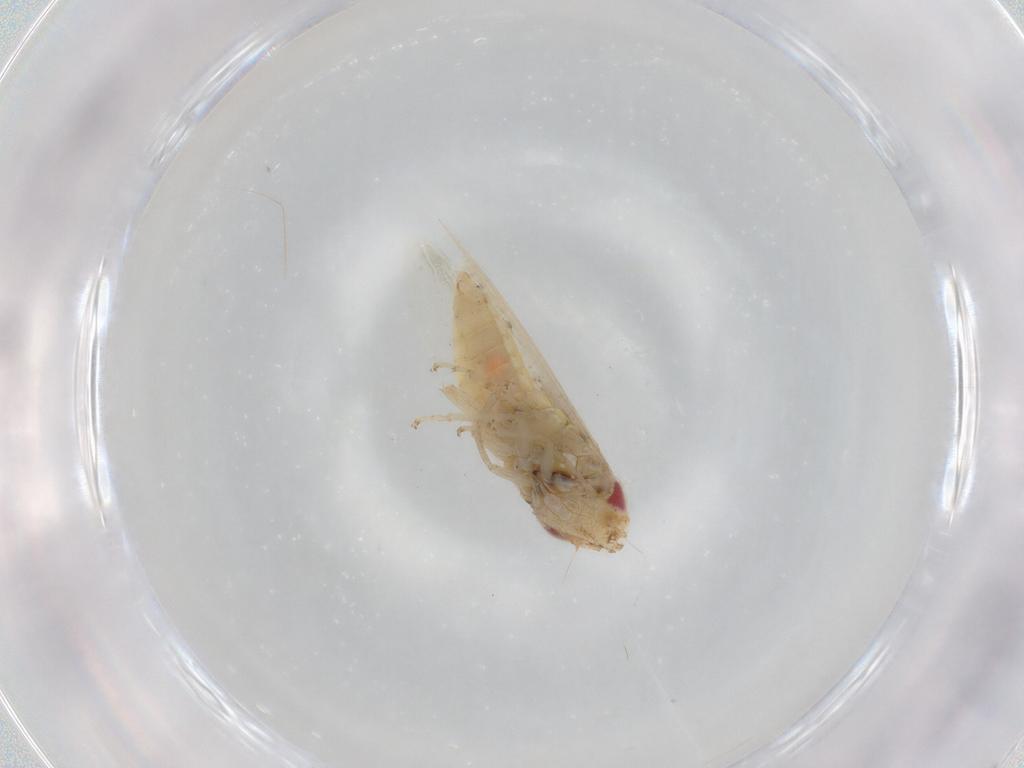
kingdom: Animalia
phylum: Arthropoda
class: Insecta
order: Hemiptera
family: Cicadellidae
